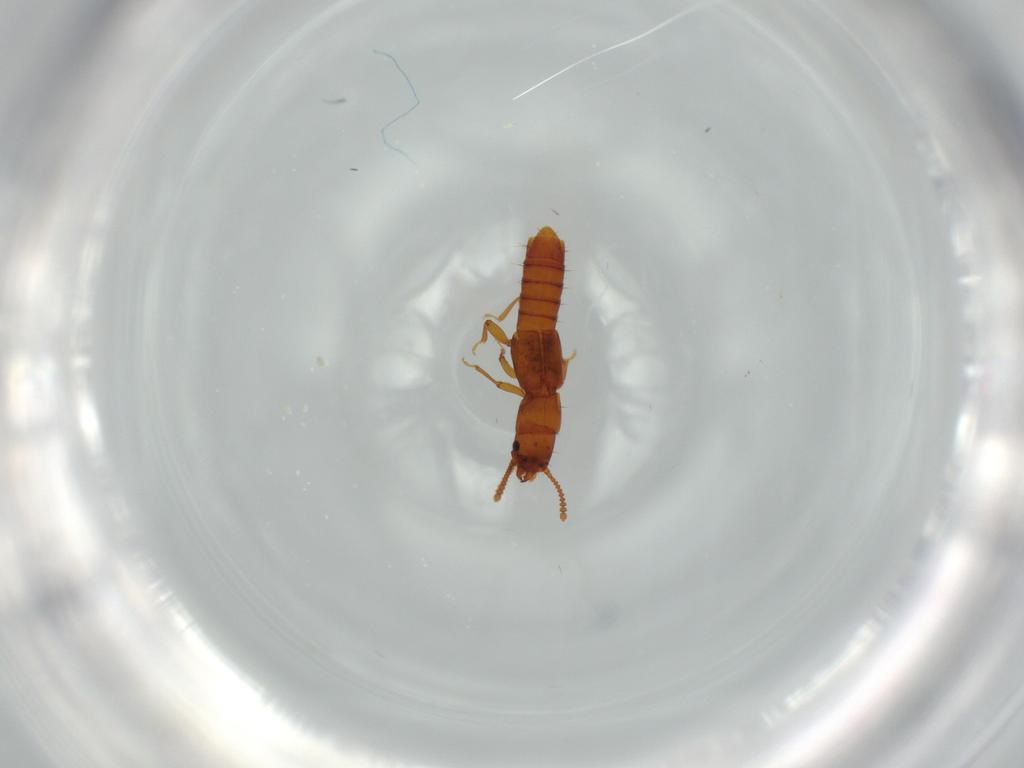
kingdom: Animalia
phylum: Arthropoda
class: Insecta
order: Coleoptera
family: Staphylinidae
